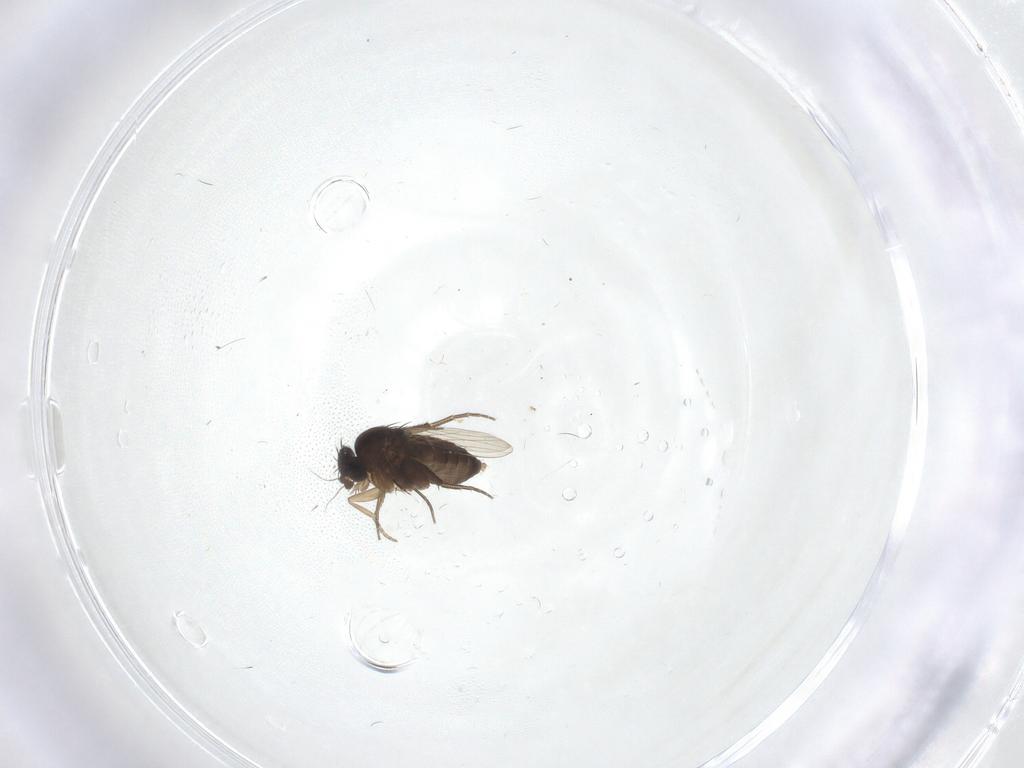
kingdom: Animalia
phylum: Arthropoda
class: Insecta
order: Diptera
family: Phoridae
